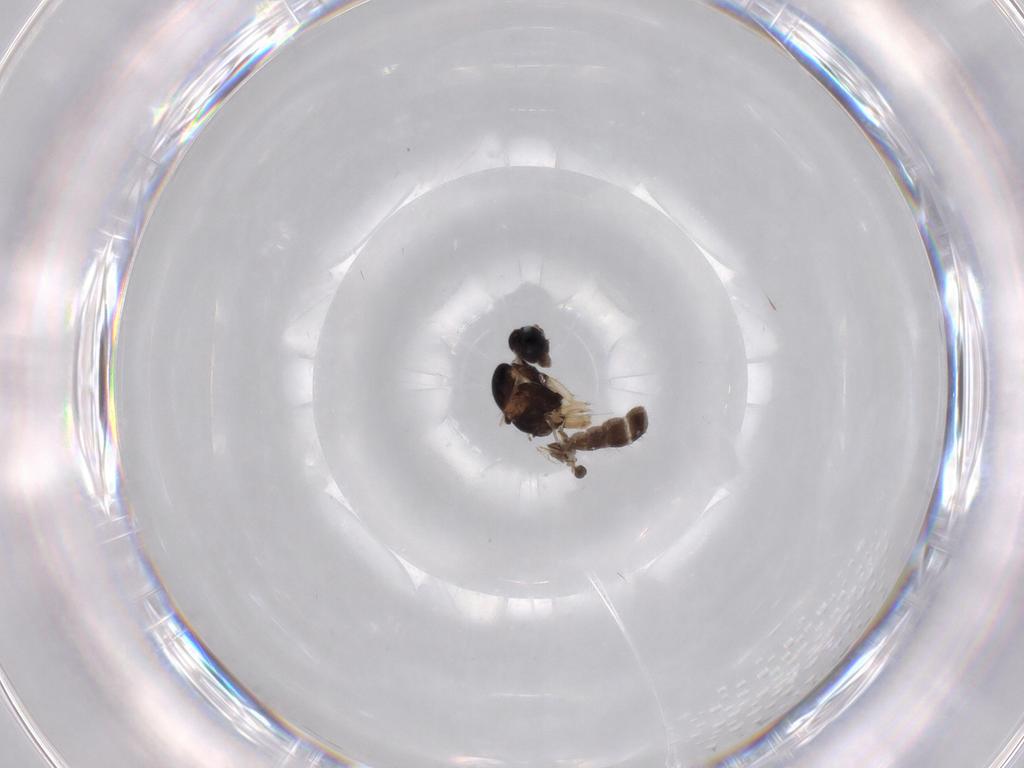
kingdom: Animalia
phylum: Arthropoda
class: Insecta
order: Diptera
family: Sciaridae
